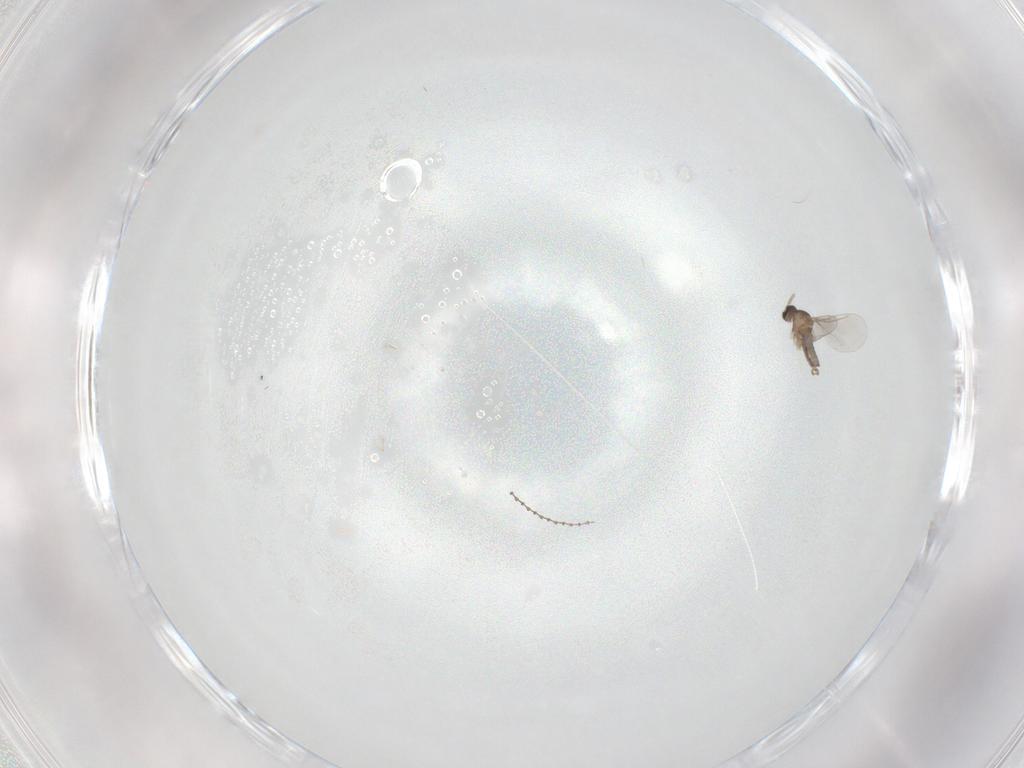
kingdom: Animalia
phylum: Arthropoda
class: Insecta
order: Diptera
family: Cecidomyiidae
